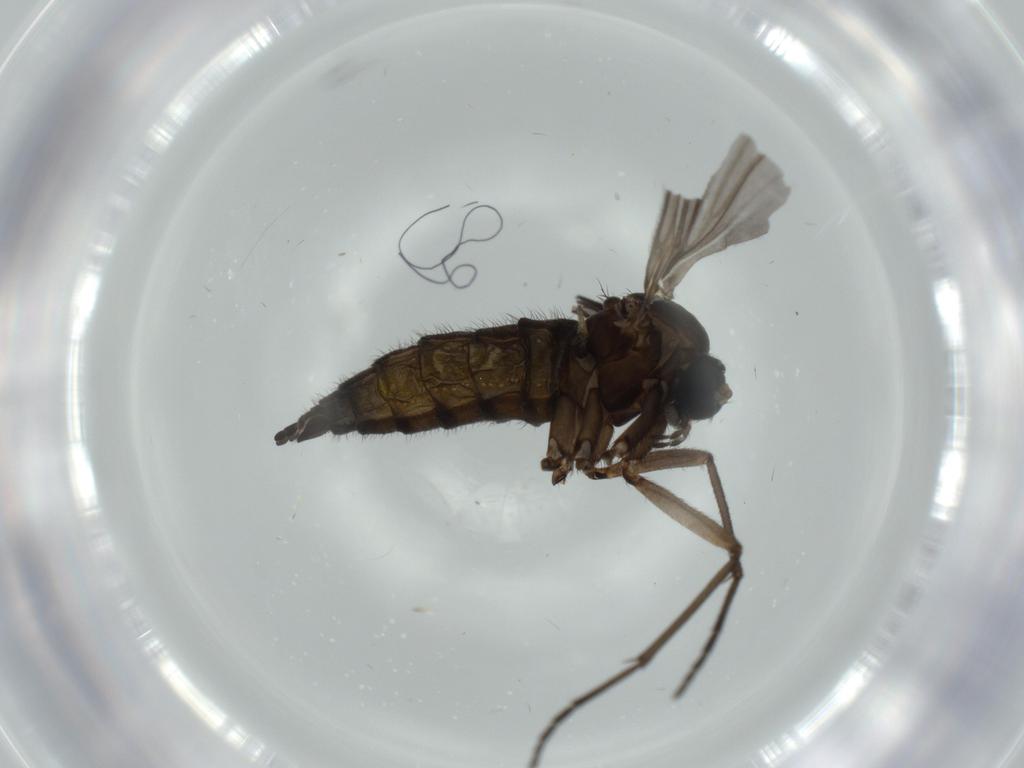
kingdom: Animalia
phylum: Arthropoda
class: Insecta
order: Diptera
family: Sciaridae
